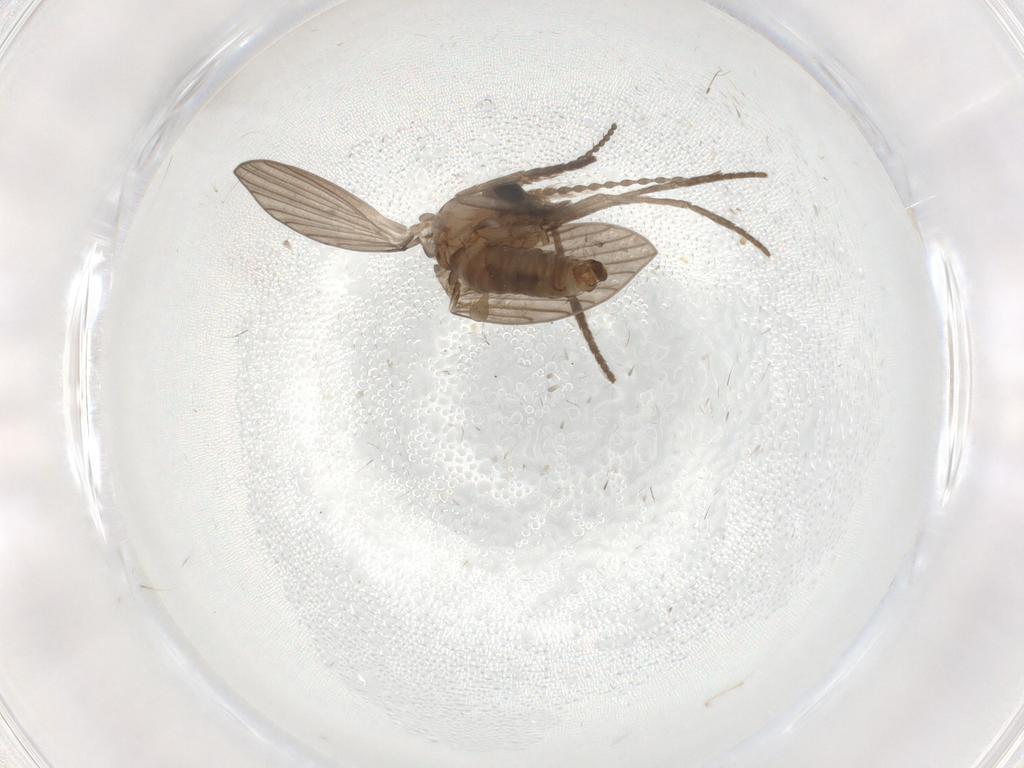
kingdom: Animalia
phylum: Arthropoda
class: Insecta
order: Diptera
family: Psychodidae
